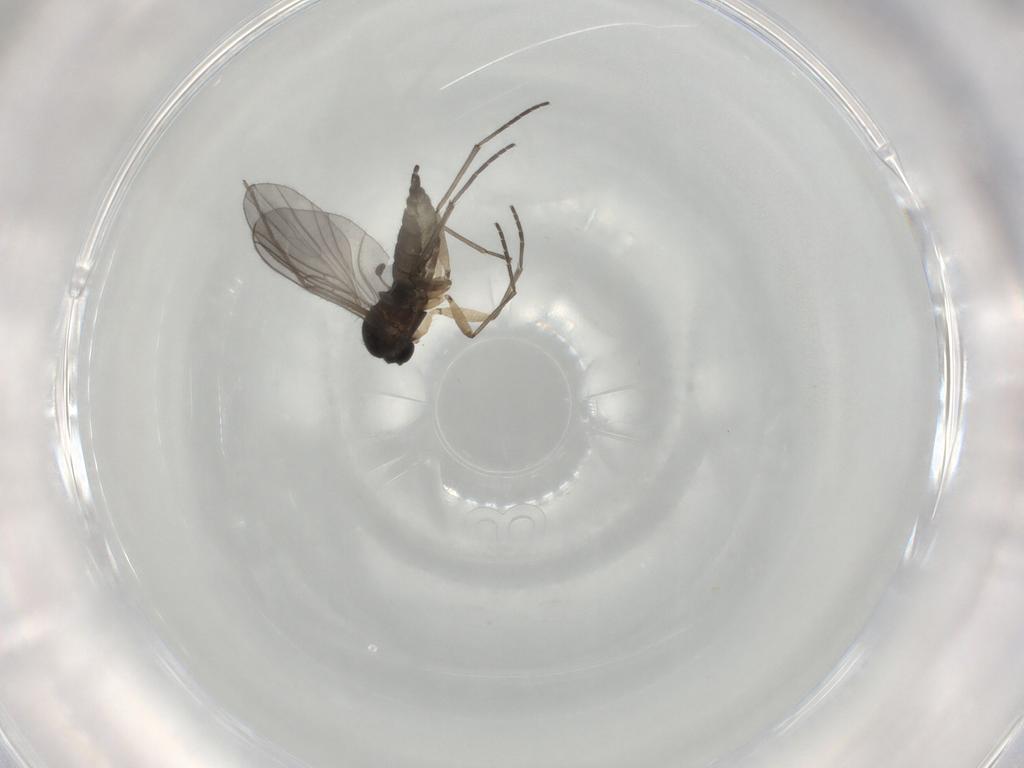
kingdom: Animalia
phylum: Arthropoda
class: Insecta
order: Diptera
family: Chironomidae
